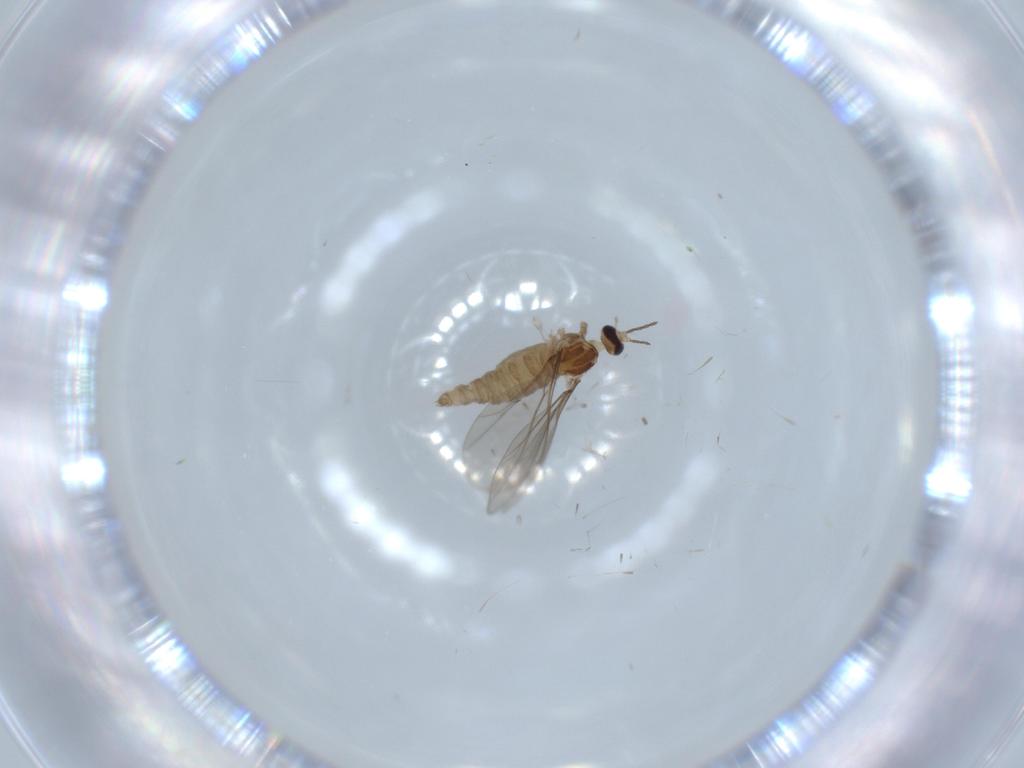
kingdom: Animalia
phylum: Arthropoda
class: Insecta
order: Diptera
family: Cecidomyiidae
